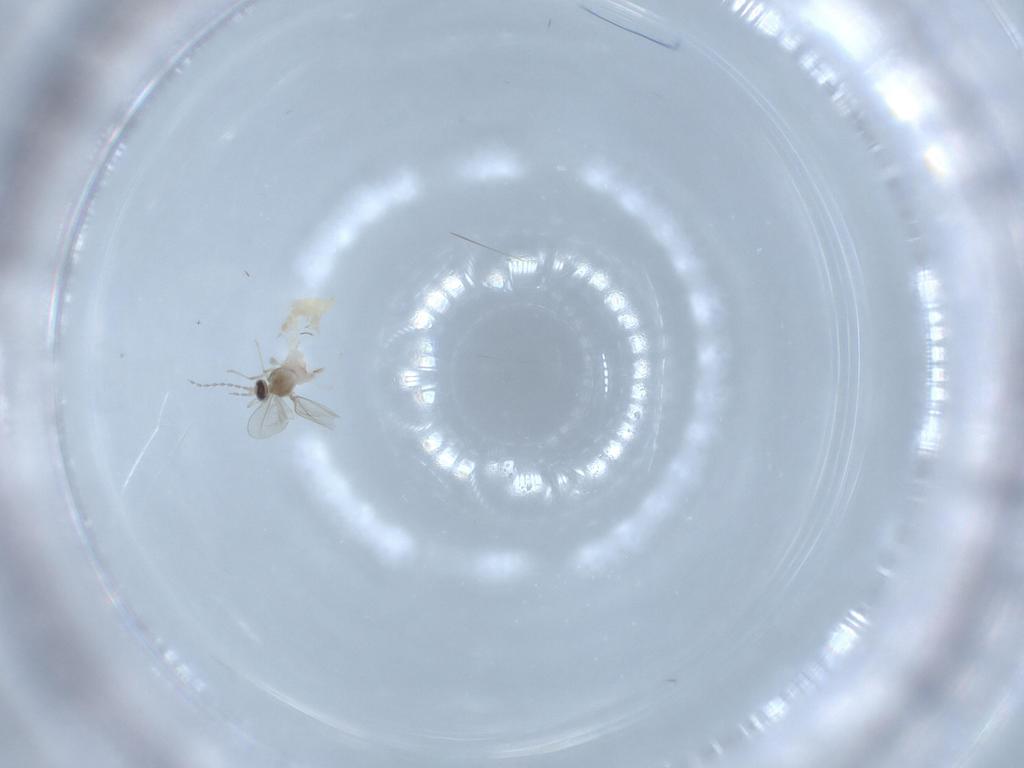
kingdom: Animalia
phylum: Arthropoda
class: Insecta
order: Diptera
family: Cecidomyiidae
